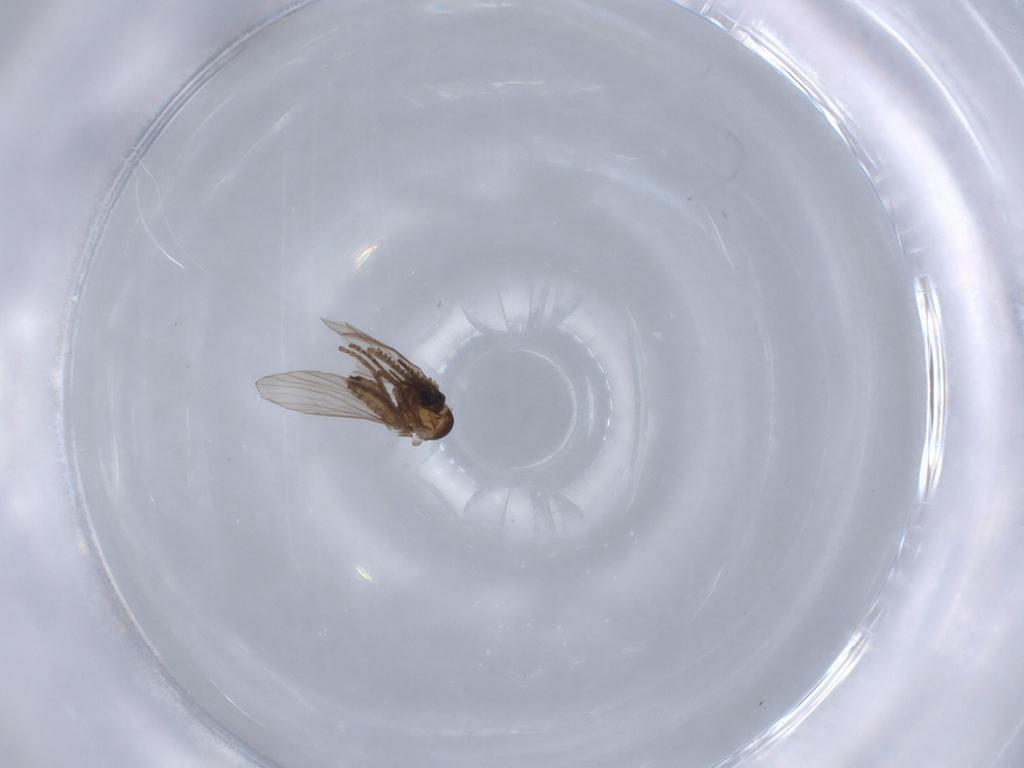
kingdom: Animalia
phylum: Arthropoda
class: Insecta
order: Diptera
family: Psychodidae
